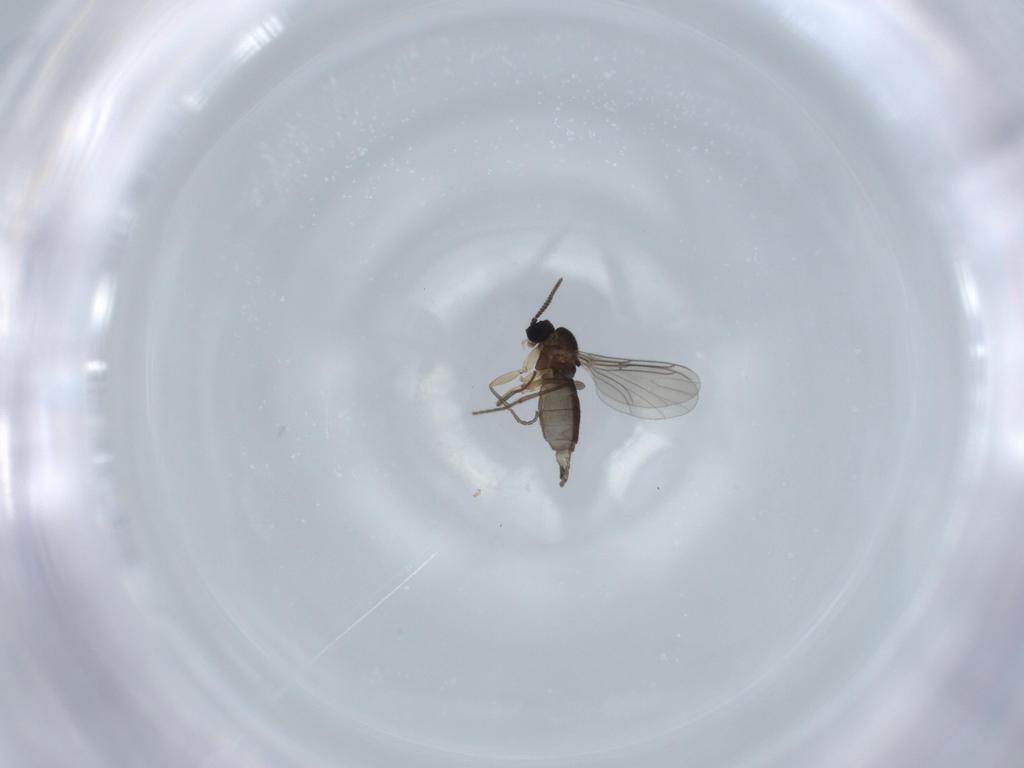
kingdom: Animalia
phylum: Arthropoda
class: Insecta
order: Diptera
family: Sciaridae
